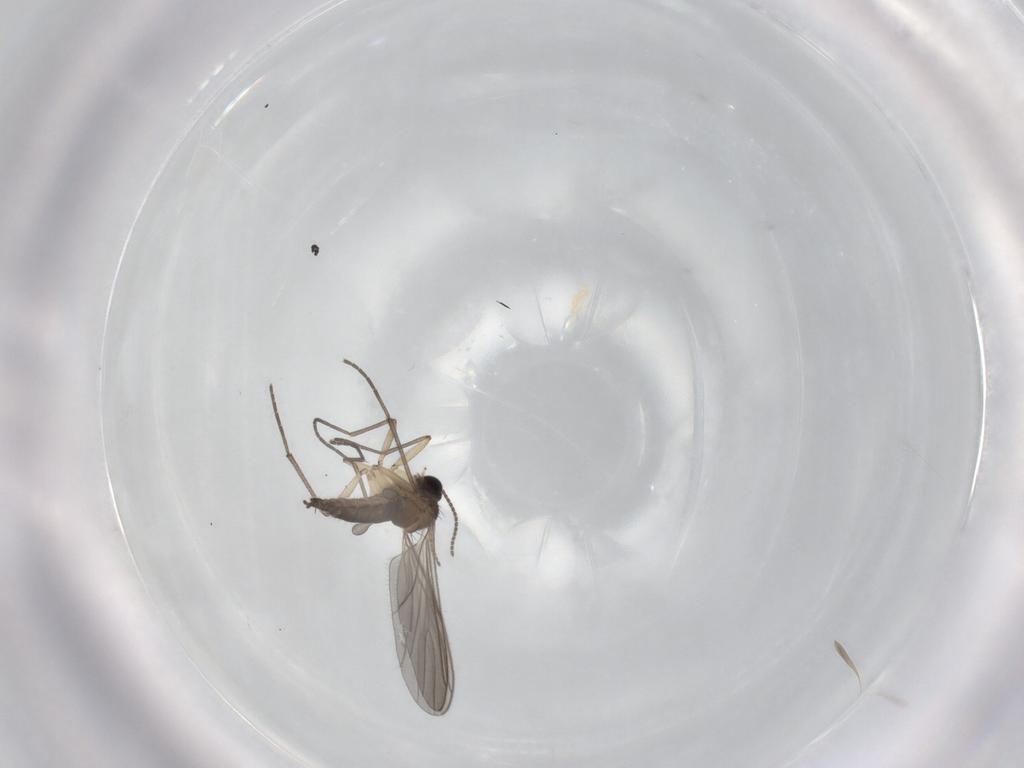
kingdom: Animalia
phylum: Arthropoda
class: Insecta
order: Diptera
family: Sciaridae
